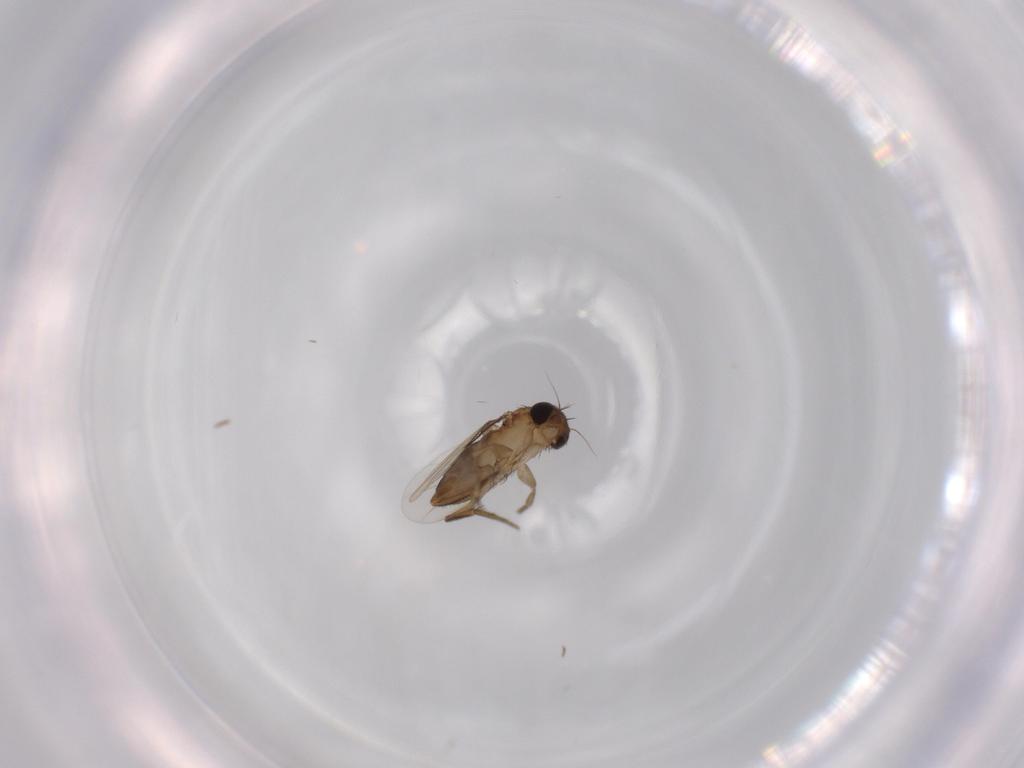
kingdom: Animalia
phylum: Arthropoda
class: Insecta
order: Diptera
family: Phoridae
